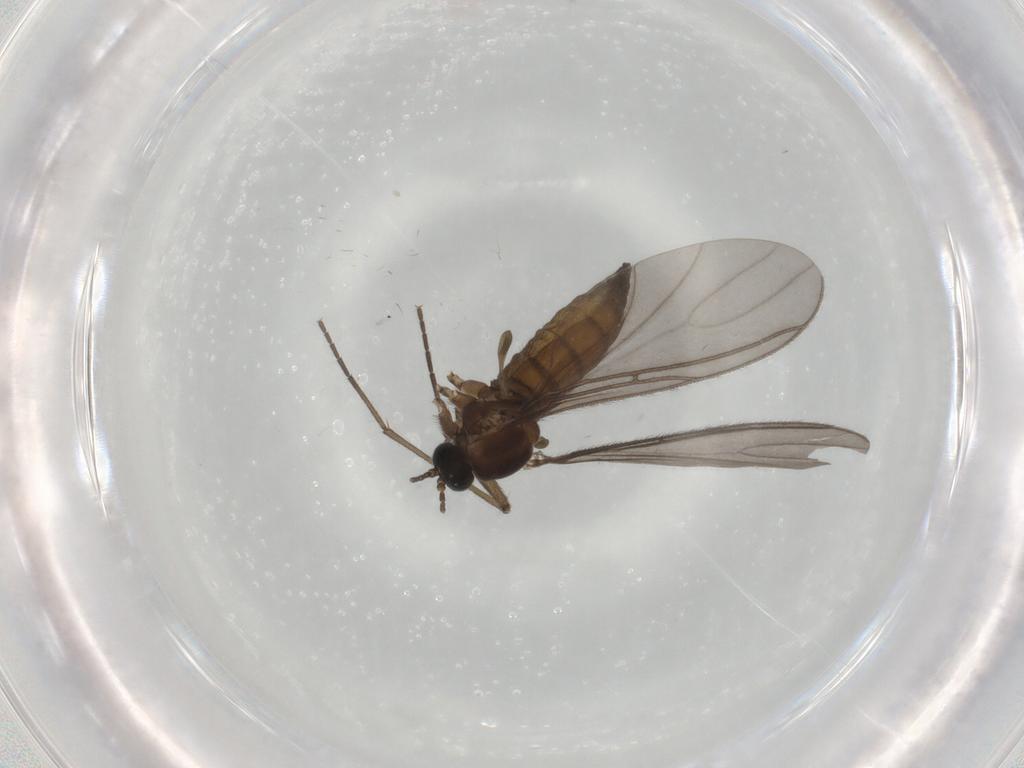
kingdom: Animalia
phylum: Arthropoda
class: Insecta
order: Diptera
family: Sciaridae
